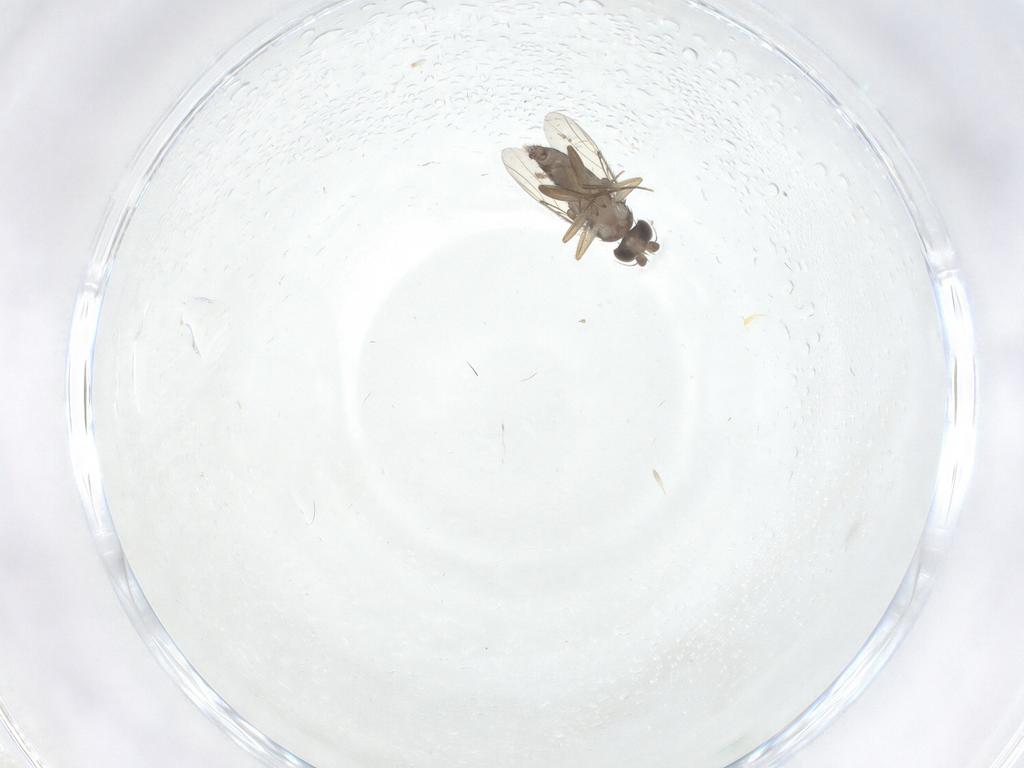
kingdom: Animalia
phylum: Arthropoda
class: Insecta
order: Diptera
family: Phoridae
